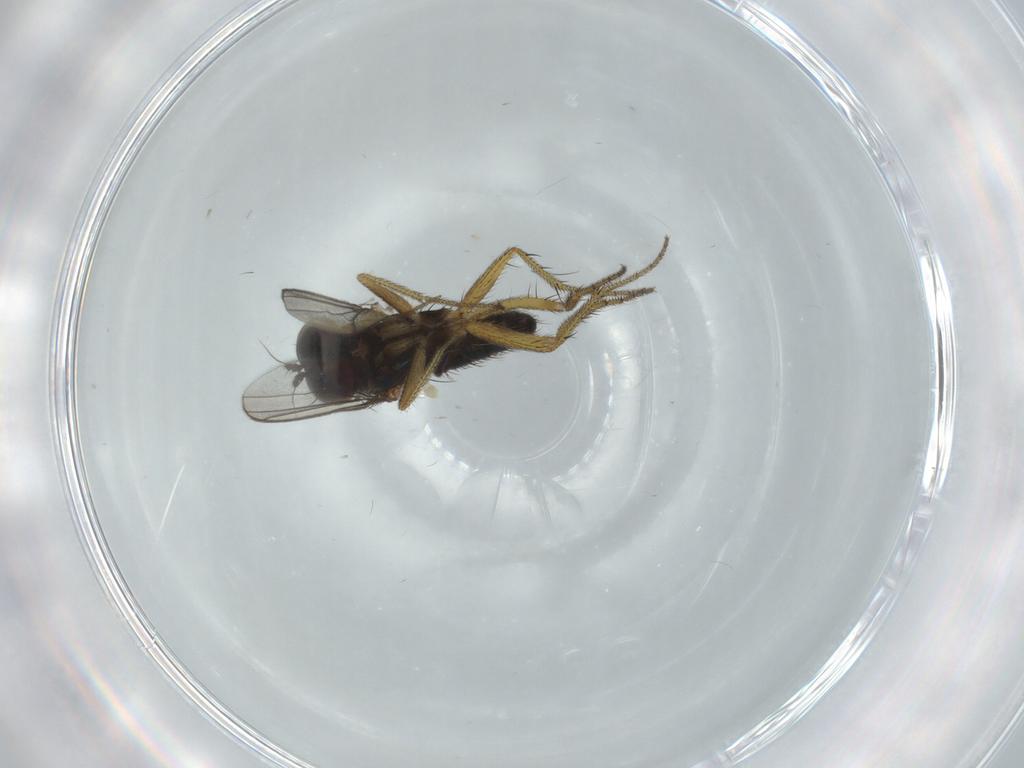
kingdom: Animalia
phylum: Arthropoda
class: Insecta
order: Diptera
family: Dolichopodidae
